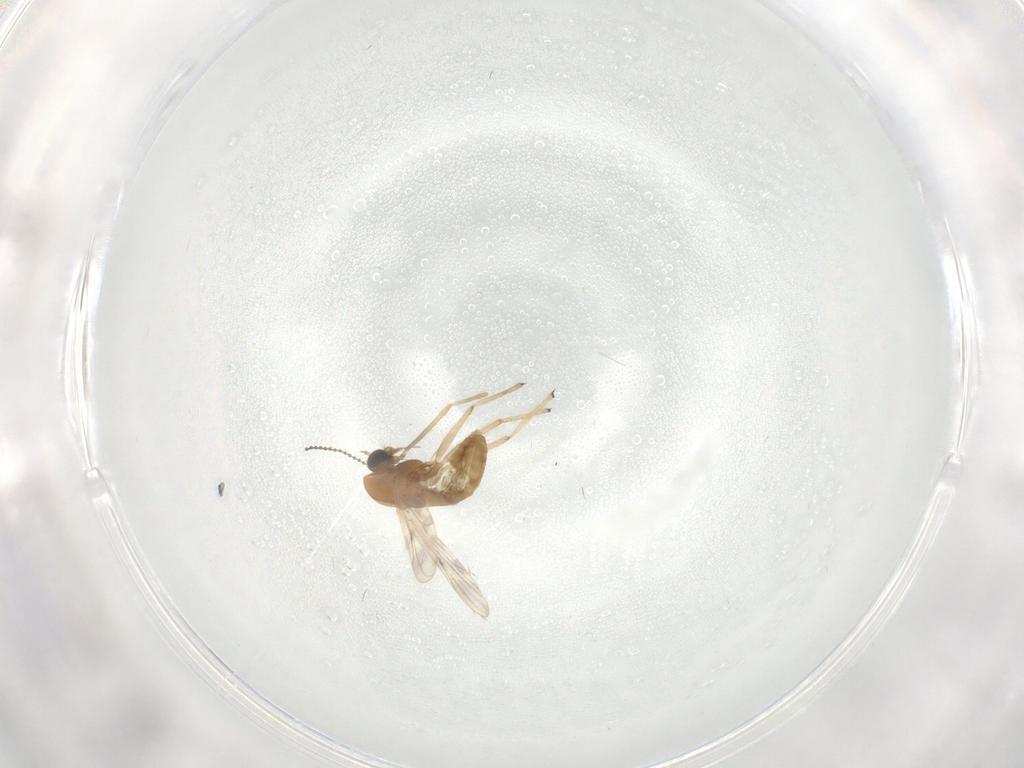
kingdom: Animalia
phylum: Arthropoda
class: Insecta
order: Diptera
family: Chironomidae
